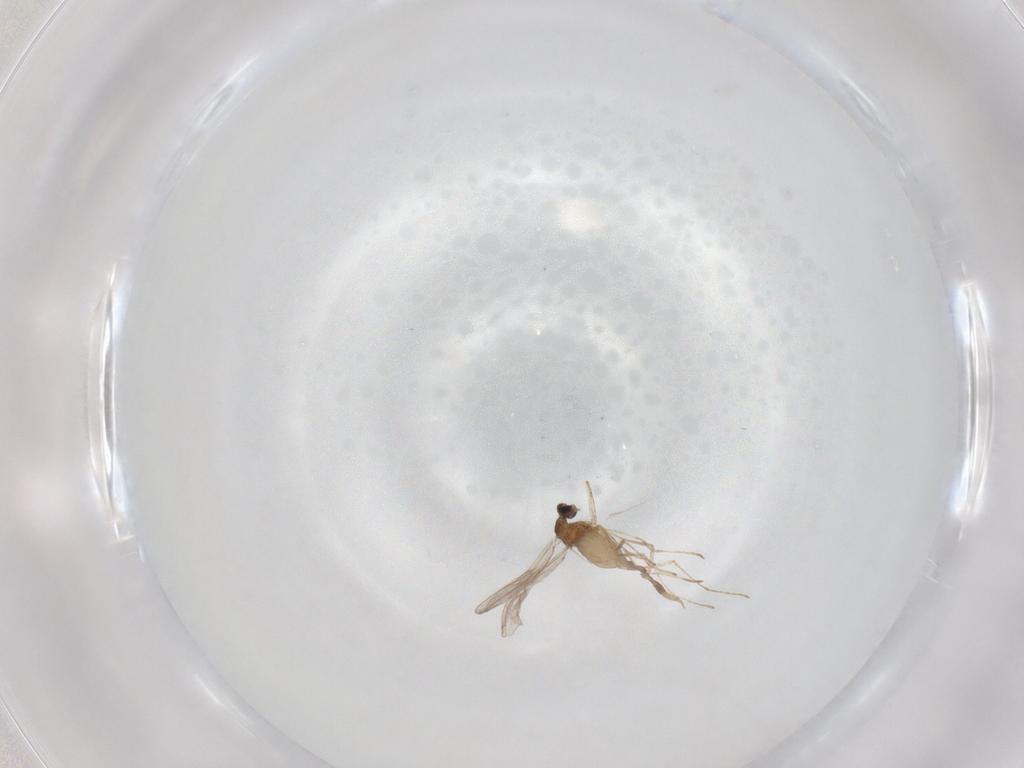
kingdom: Animalia
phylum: Arthropoda
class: Insecta
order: Diptera
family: Cecidomyiidae
